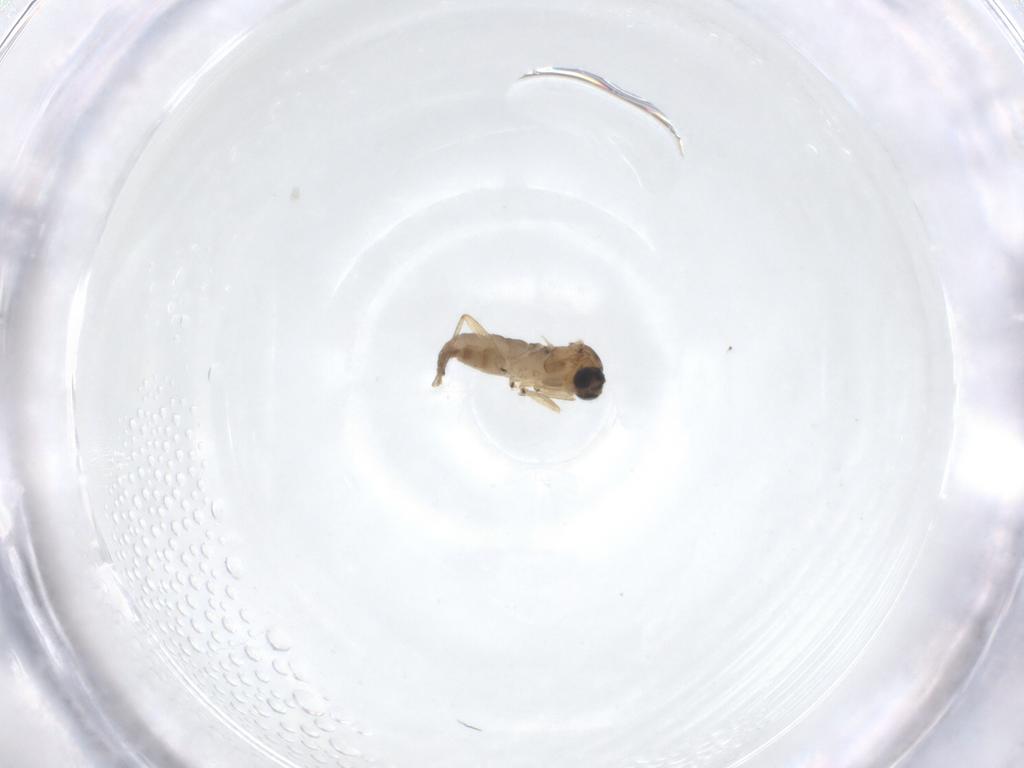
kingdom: Animalia
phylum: Arthropoda
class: Insecta
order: Diptera
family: Sciaridae
